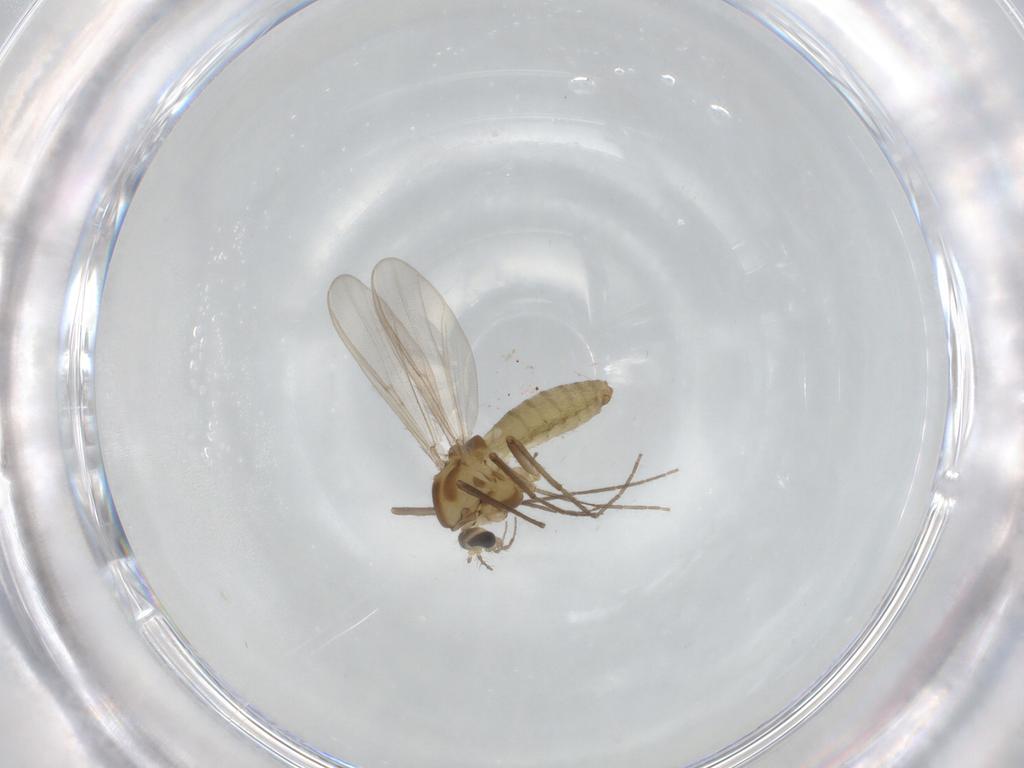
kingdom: Animalia
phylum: Arthropoda
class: Insecta
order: Diptera
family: Chironomidae
